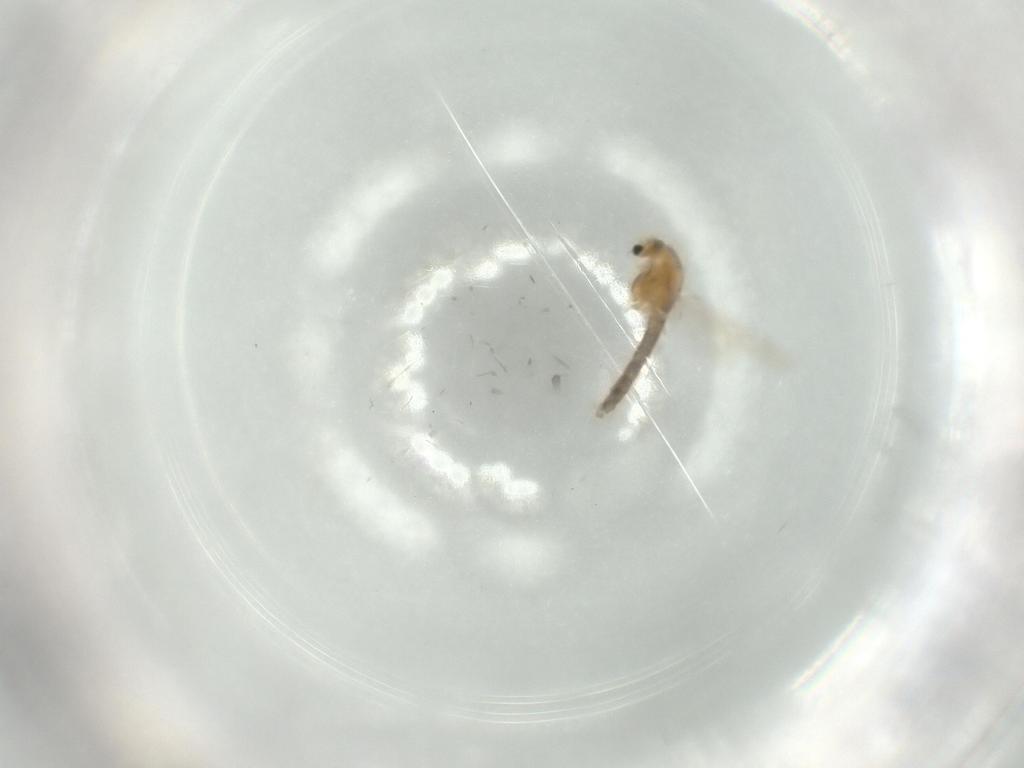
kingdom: Animalia
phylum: Arthropoda
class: Insecta
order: Diptera
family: Chironomidae
